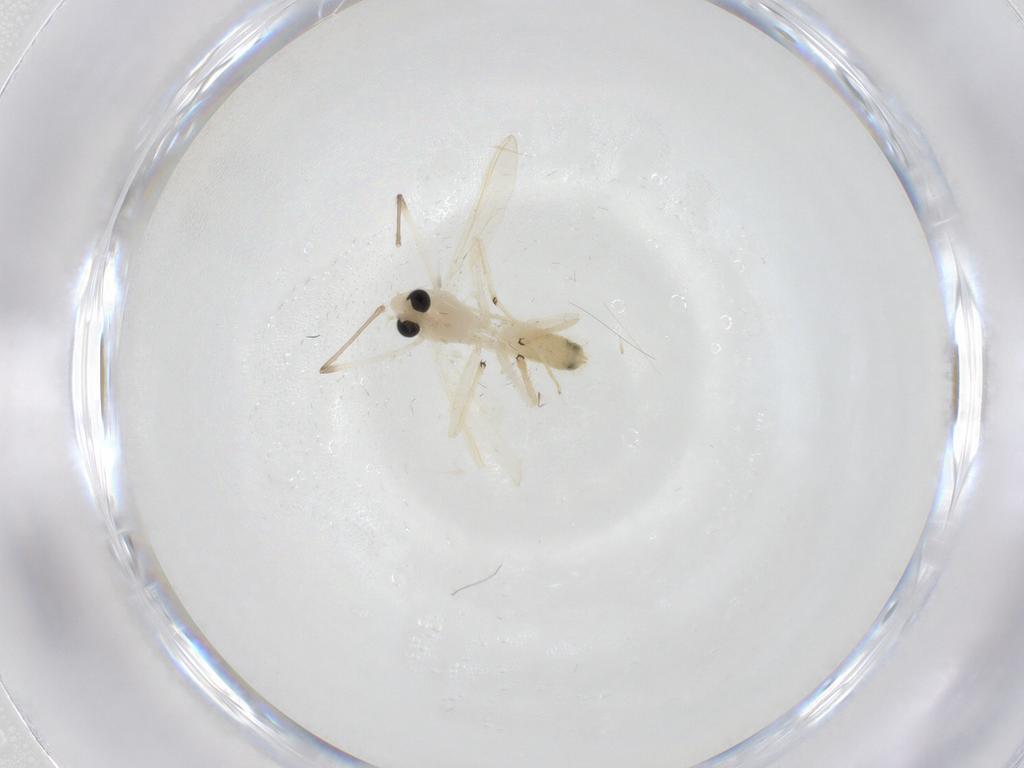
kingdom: Animalia
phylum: Arthropoda
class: Insecta
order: Diptera
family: Chironomidae
